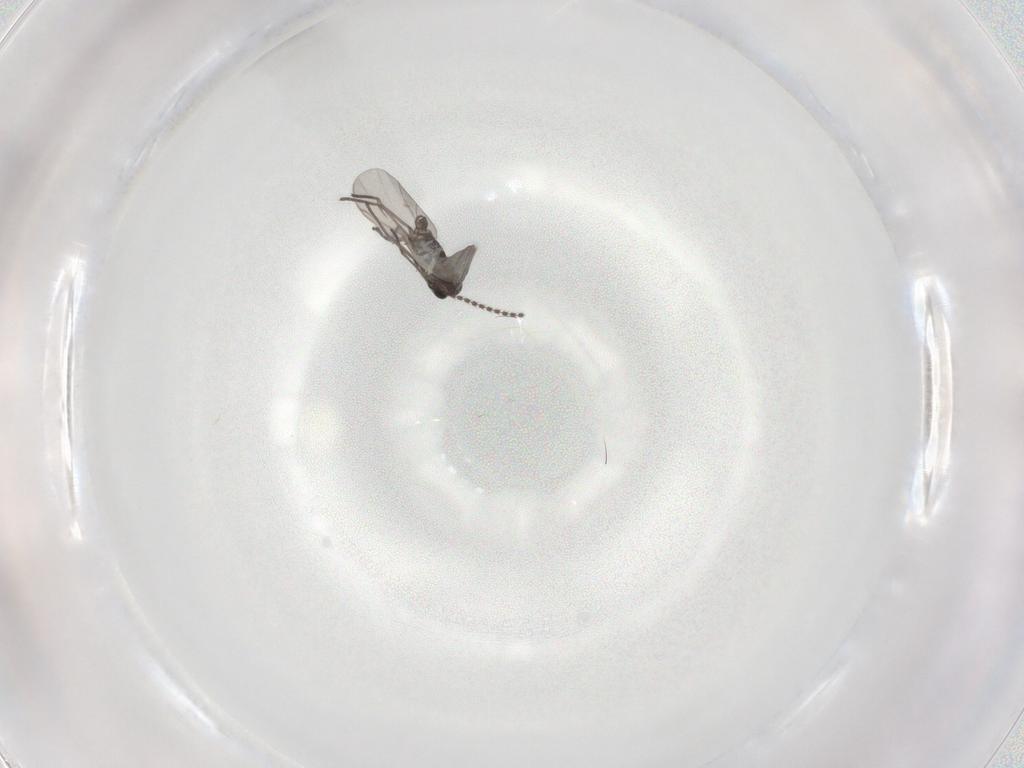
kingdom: Animalia
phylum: Arthropoda
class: Insecta
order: Diptera
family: Sciaridae
